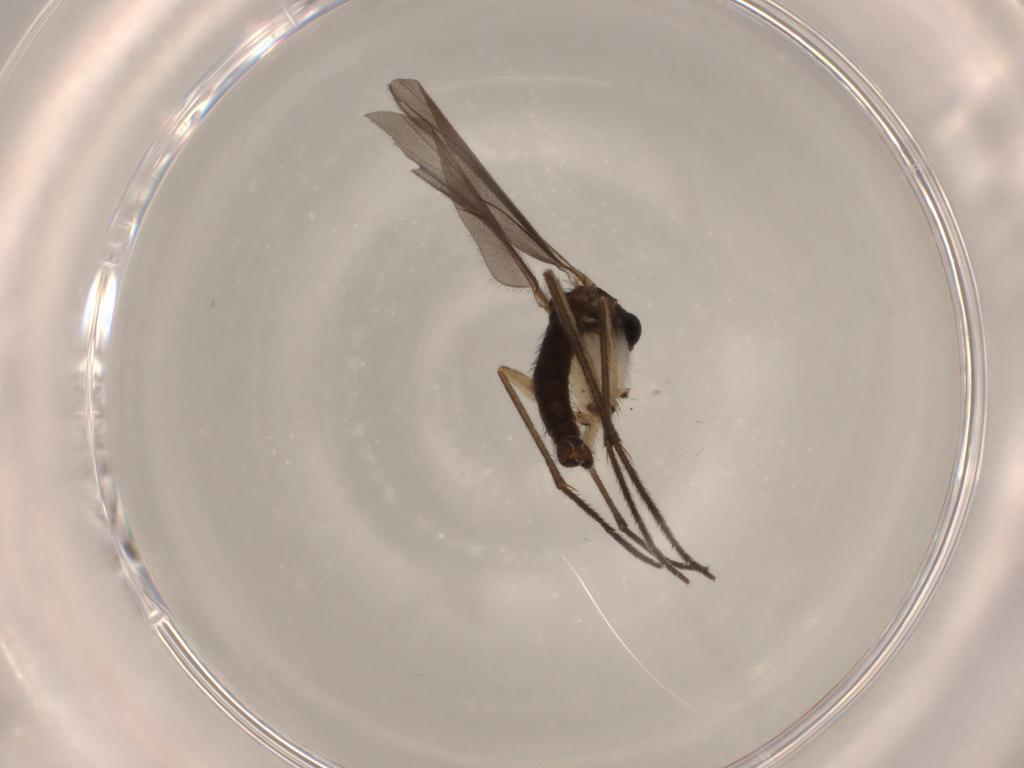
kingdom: Animalia
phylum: Arthropoda
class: Insecta
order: Diptera
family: Sciaridae
